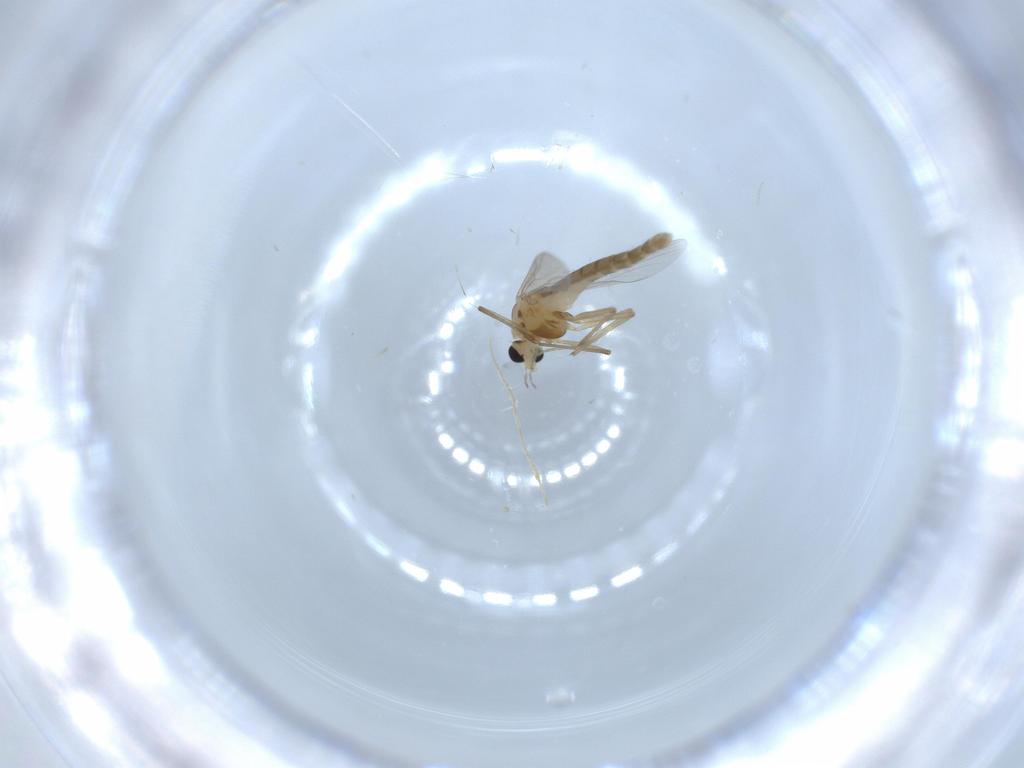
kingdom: Animalia
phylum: Arthropoda
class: Insecta
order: Diptera
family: Chironomidae
